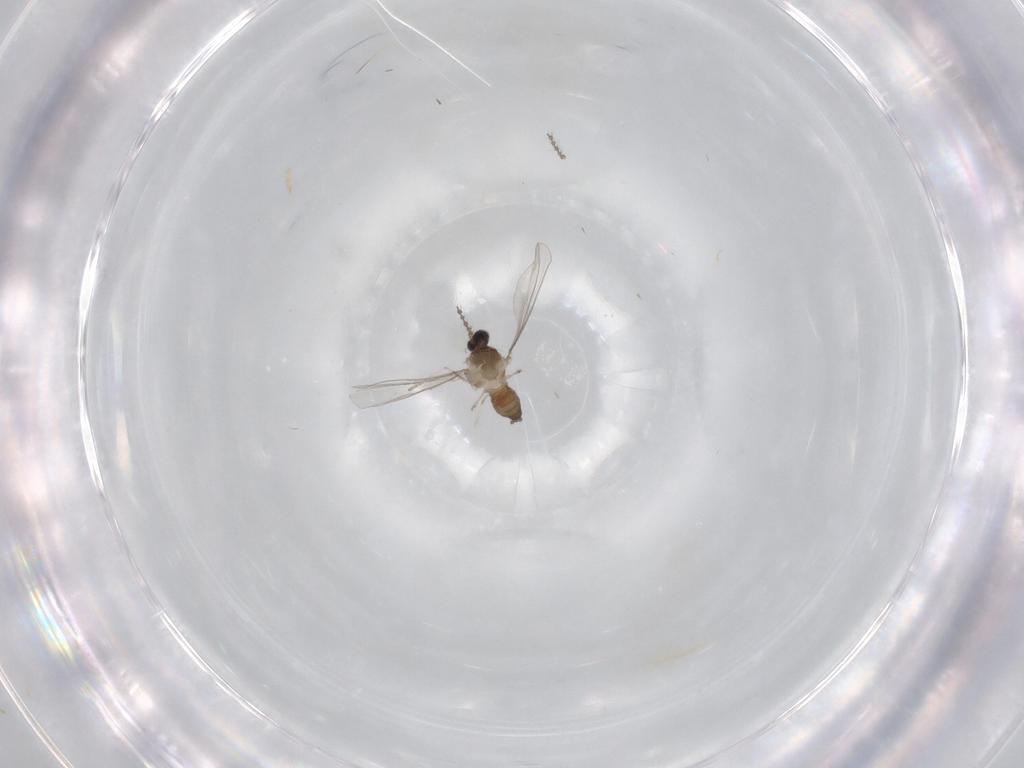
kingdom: Animalia
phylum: Arthropoda
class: Insecta
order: Diptera
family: Cecidomyiidae
